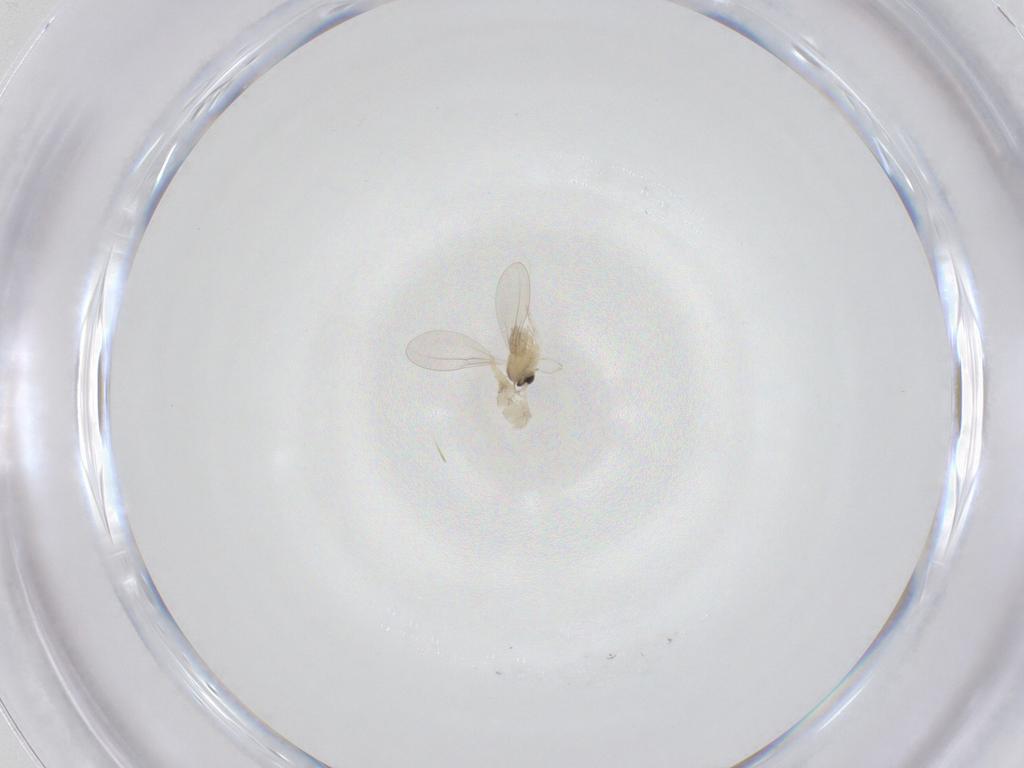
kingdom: Animalia
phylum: Arthropoda
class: Insecta
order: Diptera
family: Cecidomyiidae
